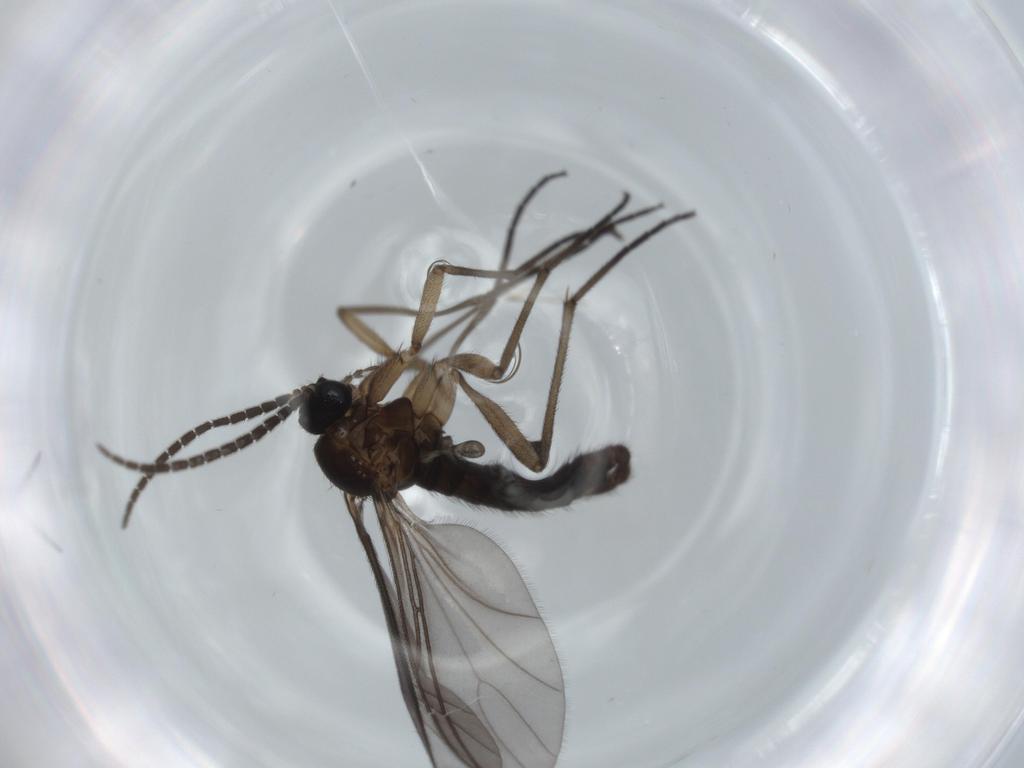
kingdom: Animalia
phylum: Arthropoda
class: Insecta
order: Diptera
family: Sciaridae
